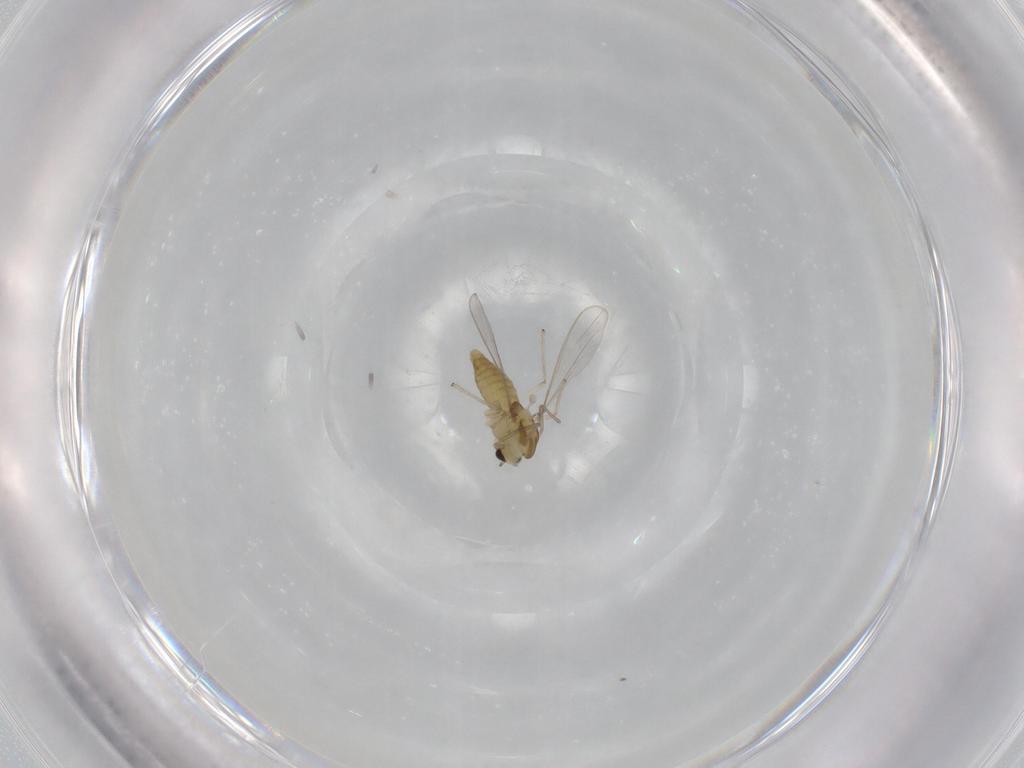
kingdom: Animalia
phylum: Arthropoda
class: Insecta
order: Diptera
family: Chironomidae
